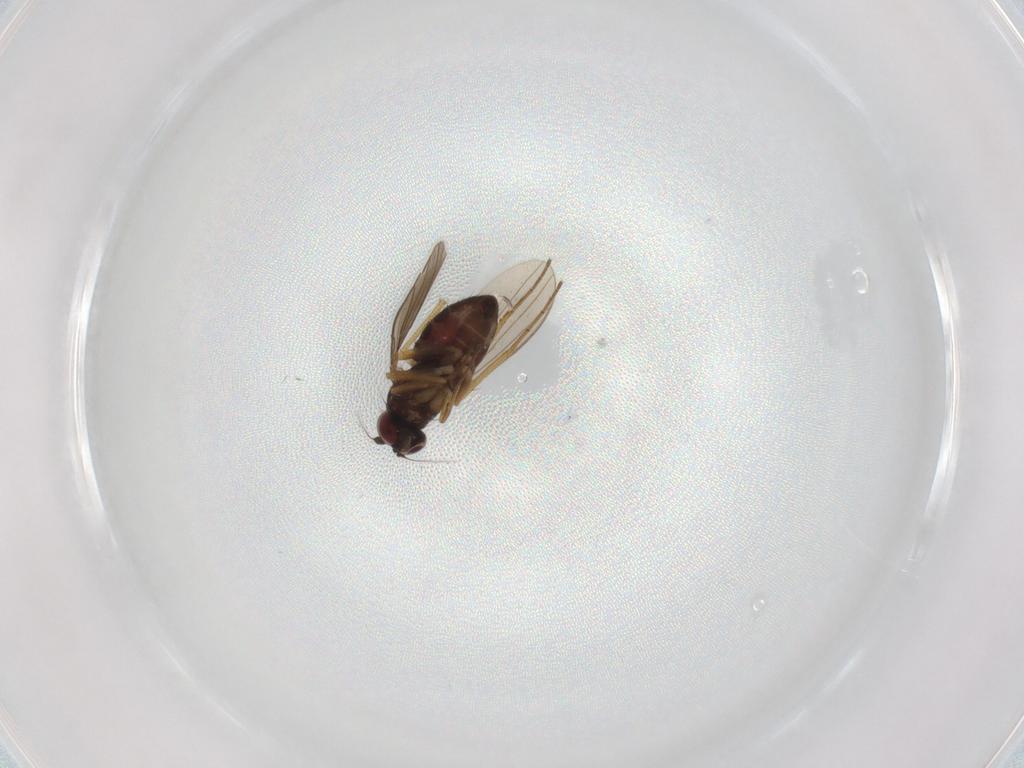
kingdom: Animalia
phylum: Arthropoda
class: Insecta
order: Diptera
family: Dolichopodidae
